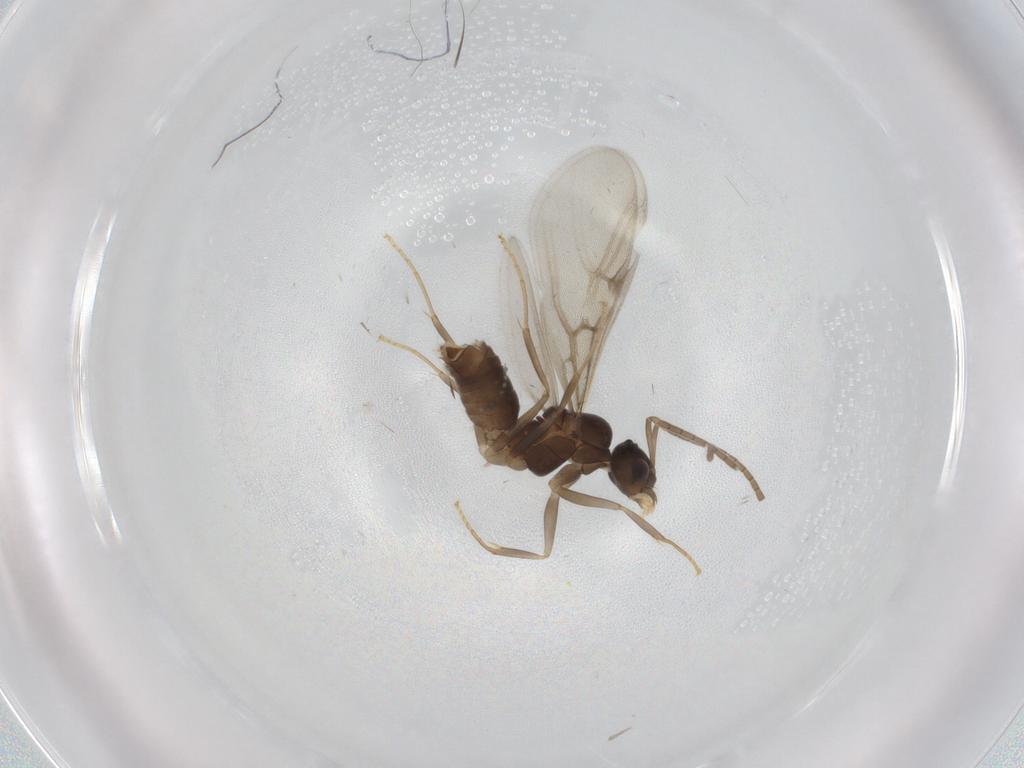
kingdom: Animalia
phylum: Arthropoda
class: Insecta
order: Hymenoptera
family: Formicidae
